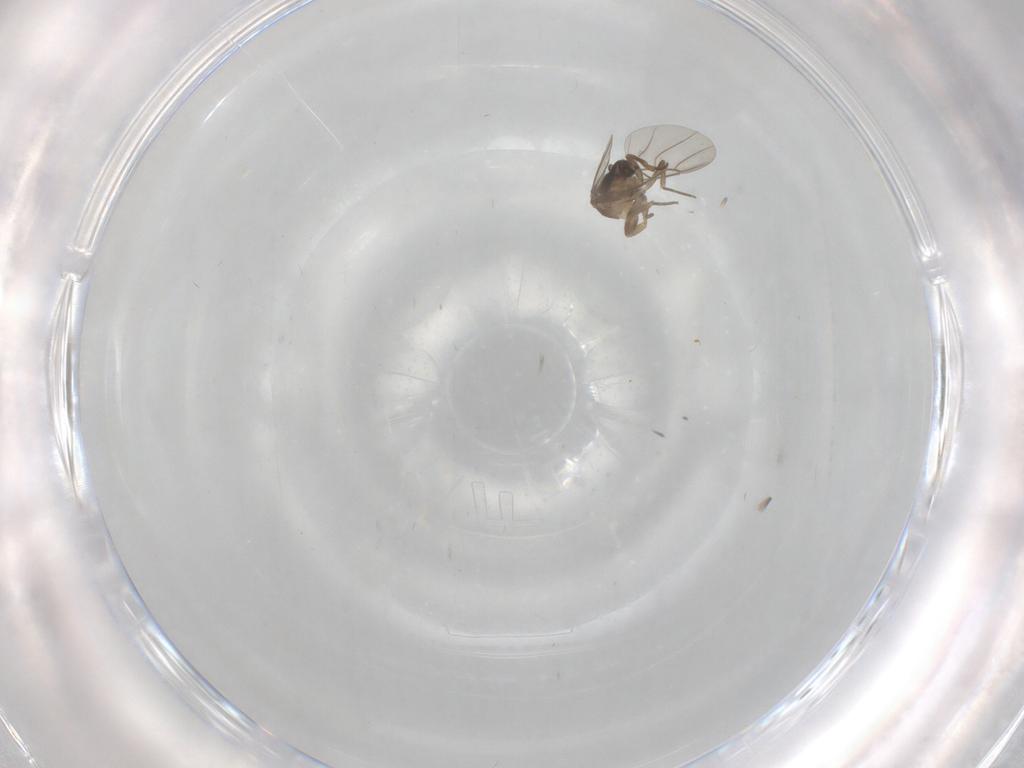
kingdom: Animalia
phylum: Arthropoda
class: Insecta
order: Diptera
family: Phoridae
